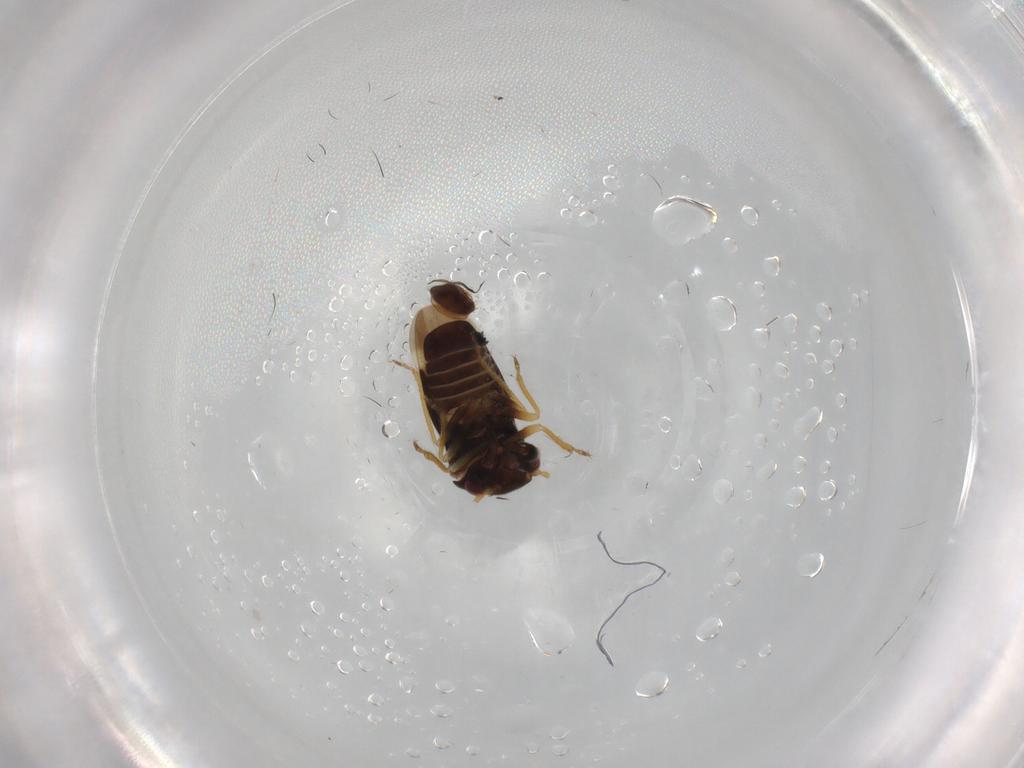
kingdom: Animalia
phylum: Arthropoda
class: Insecta
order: Hemiptera
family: Schizopteridae
